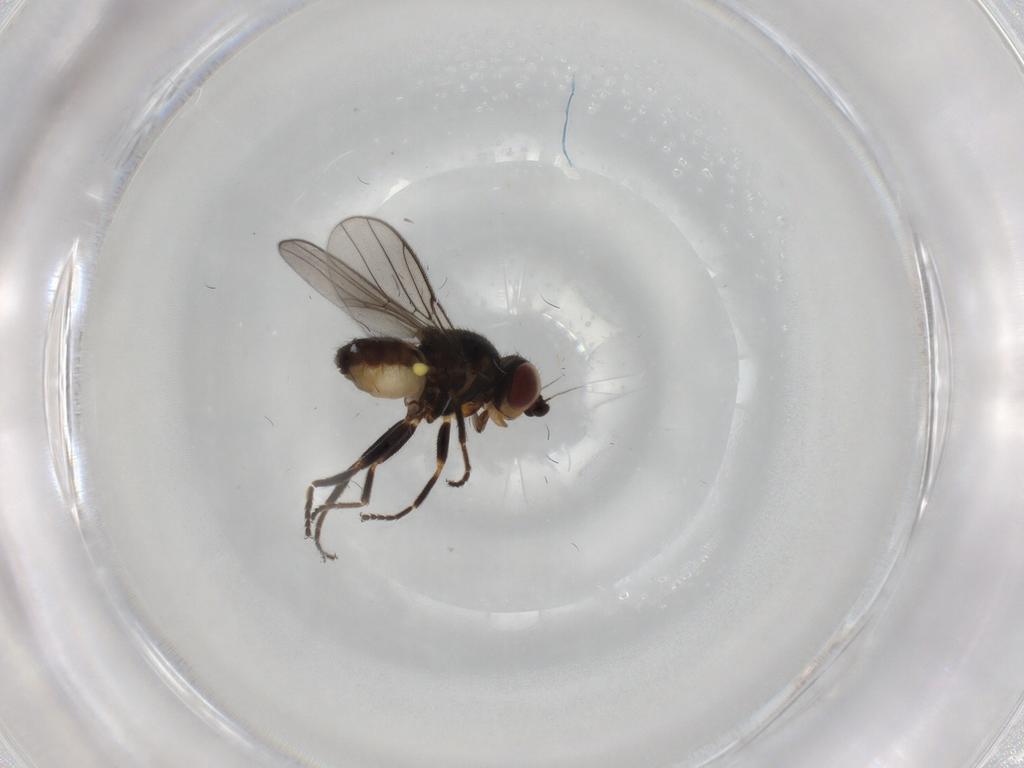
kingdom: Animalia
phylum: Arthropoda
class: Insecta
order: Diptera
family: Chloropidae
